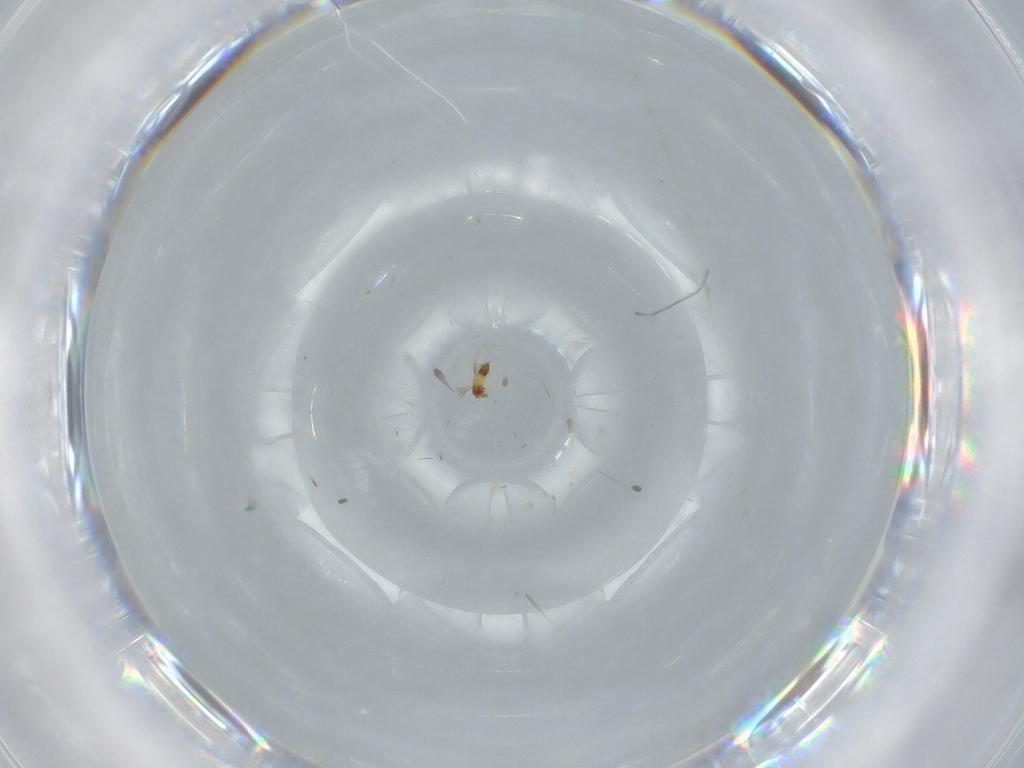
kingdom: Animalia
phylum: Arthropoda
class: Insecta
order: Hymenoptera
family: Trichogrammatidae
